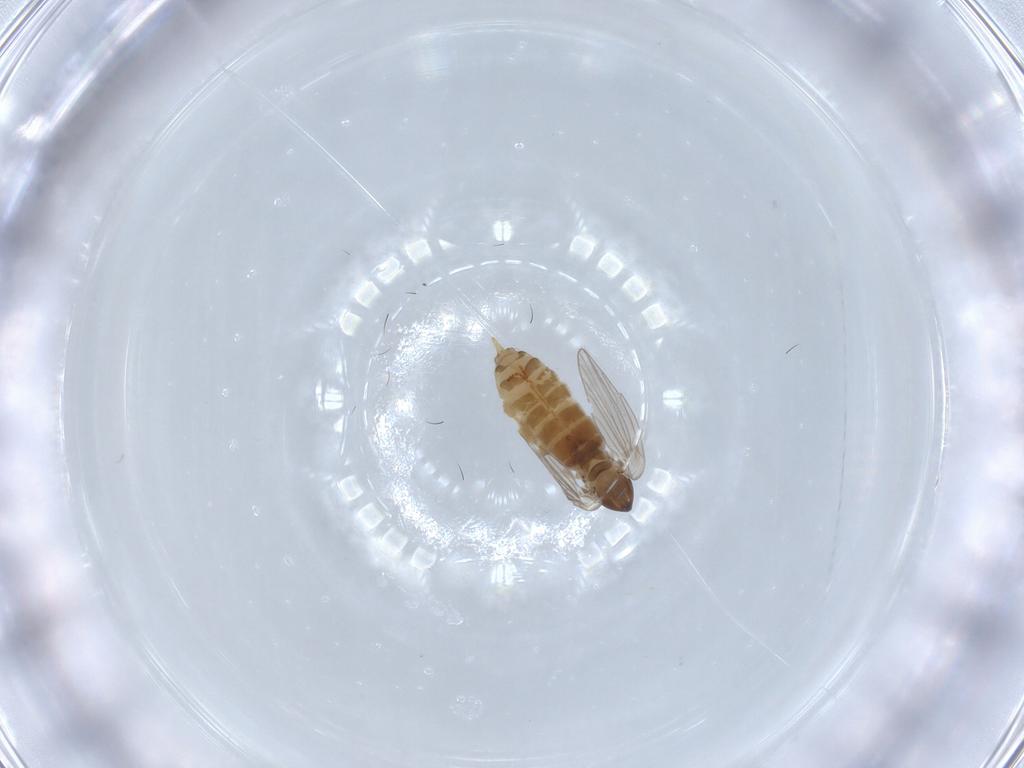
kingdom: Animalia
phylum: Arthropoda
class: Insecta
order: Diptera
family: Psychodidae
